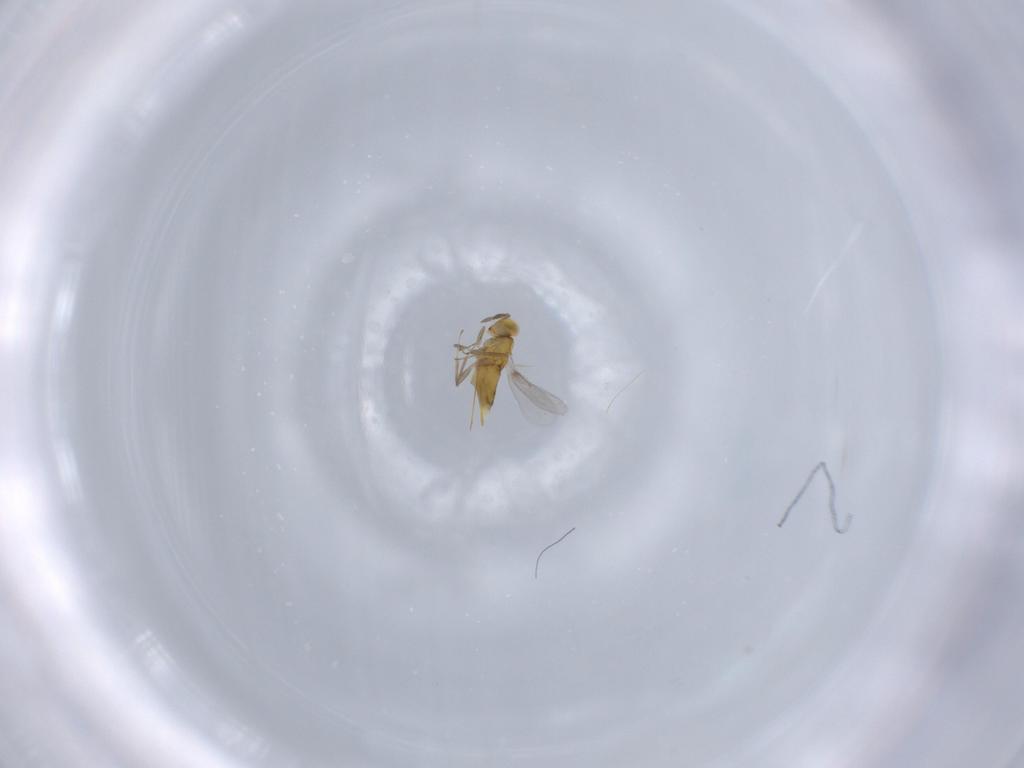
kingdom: Animalia
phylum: Arthropoda
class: Insecta
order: Hymenoptera
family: Aphelinidae
